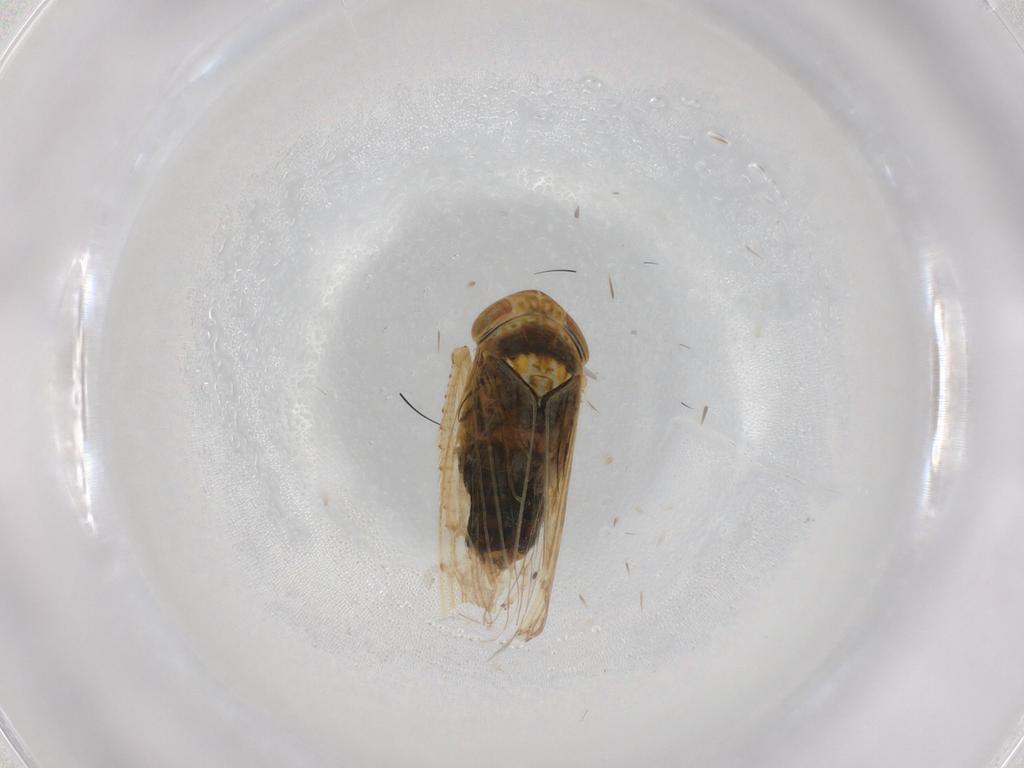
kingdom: Animalia
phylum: Arthropoda
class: Insecta
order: Hemiptera
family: Cicadellidae
